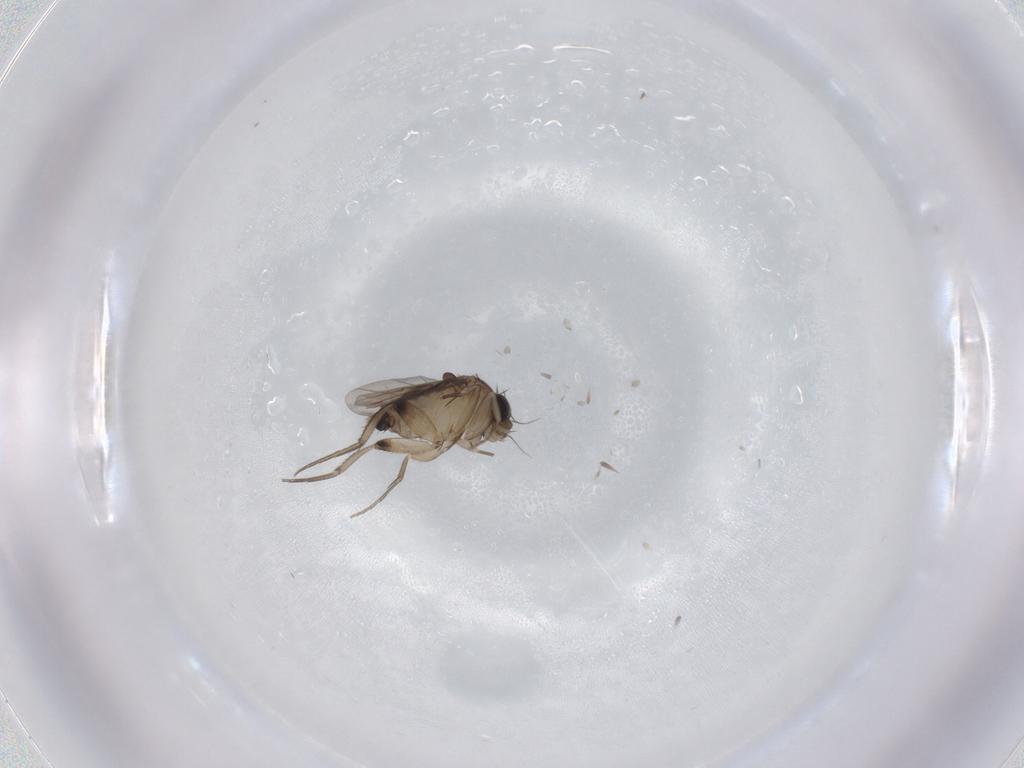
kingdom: Animalia
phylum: Arthropoda
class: Insecta
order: Diptera
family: Phoridae
